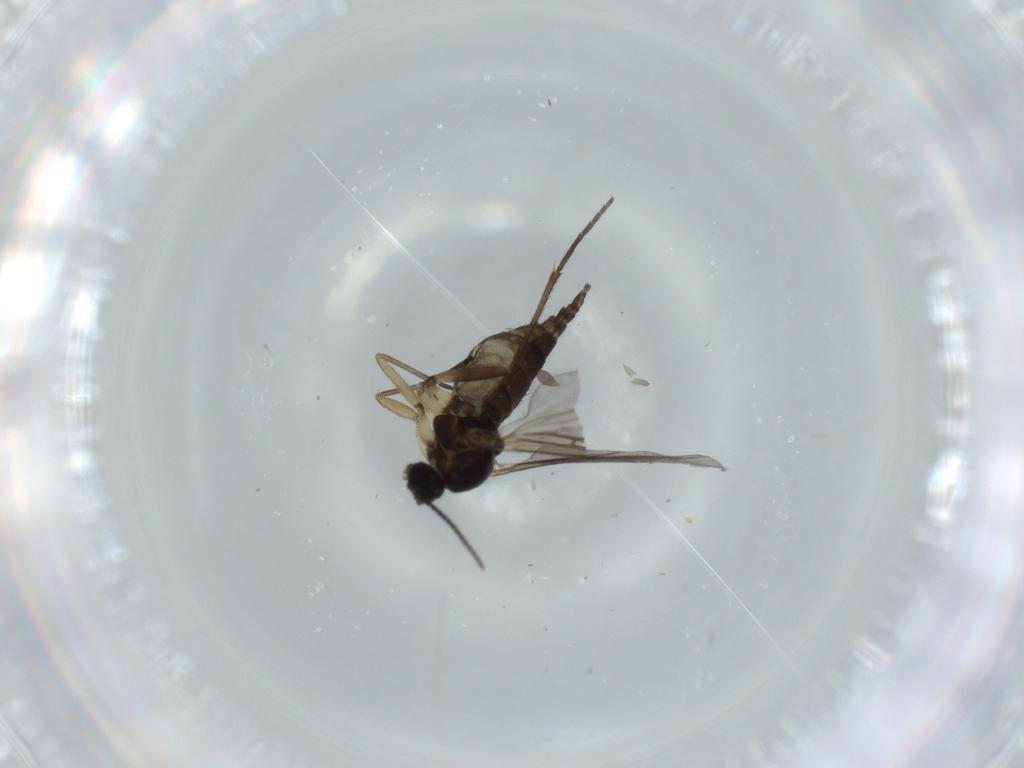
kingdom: Animalia
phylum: Arthropoda
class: Insecta
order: Diptera
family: Sciaridae
